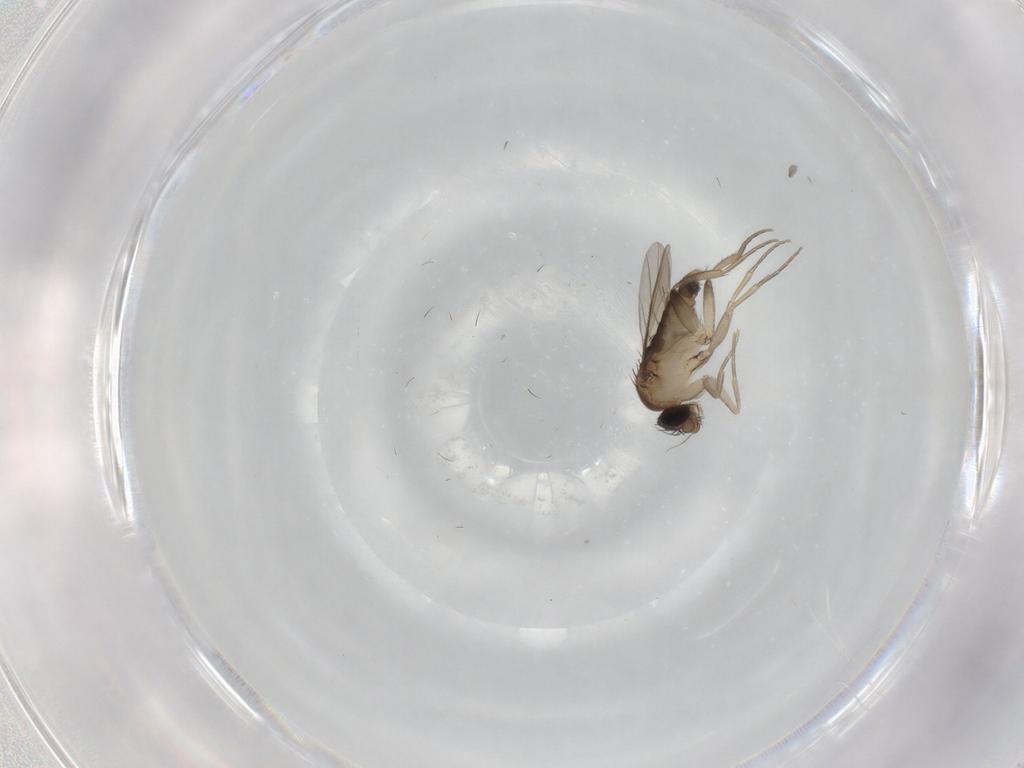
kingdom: Animalia
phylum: Arthropoda
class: Insecta
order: Diptera
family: Phoridae
